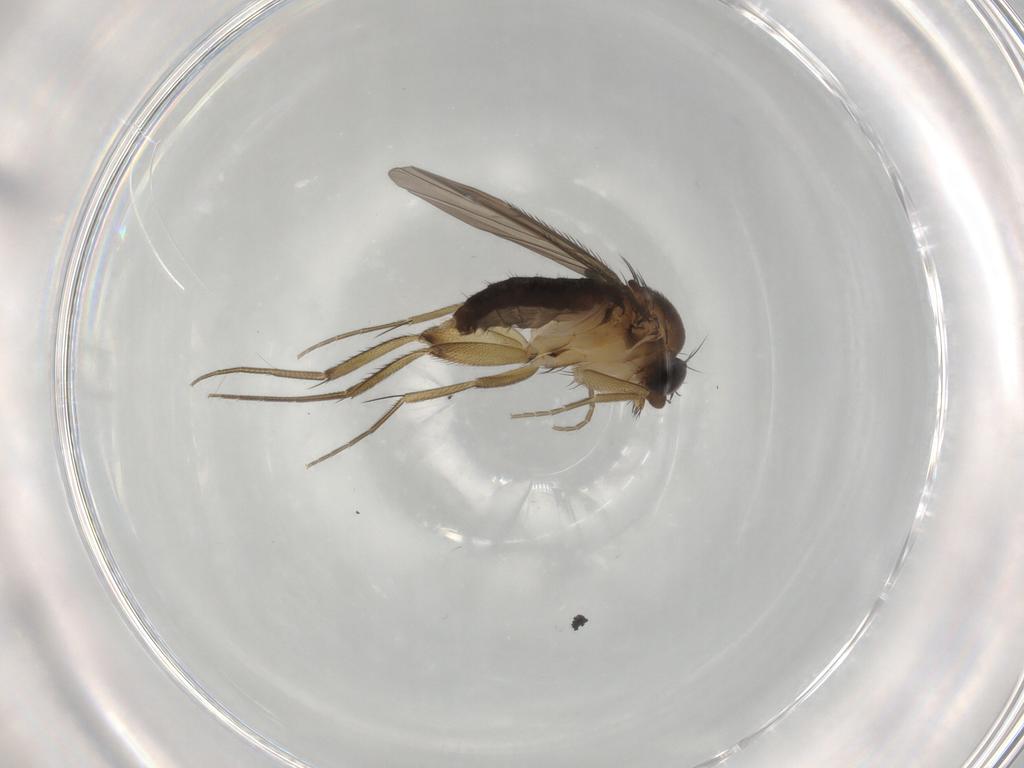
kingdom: Animalia
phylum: Arthropoda
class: Insecta
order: Diptera
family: Phoridae
